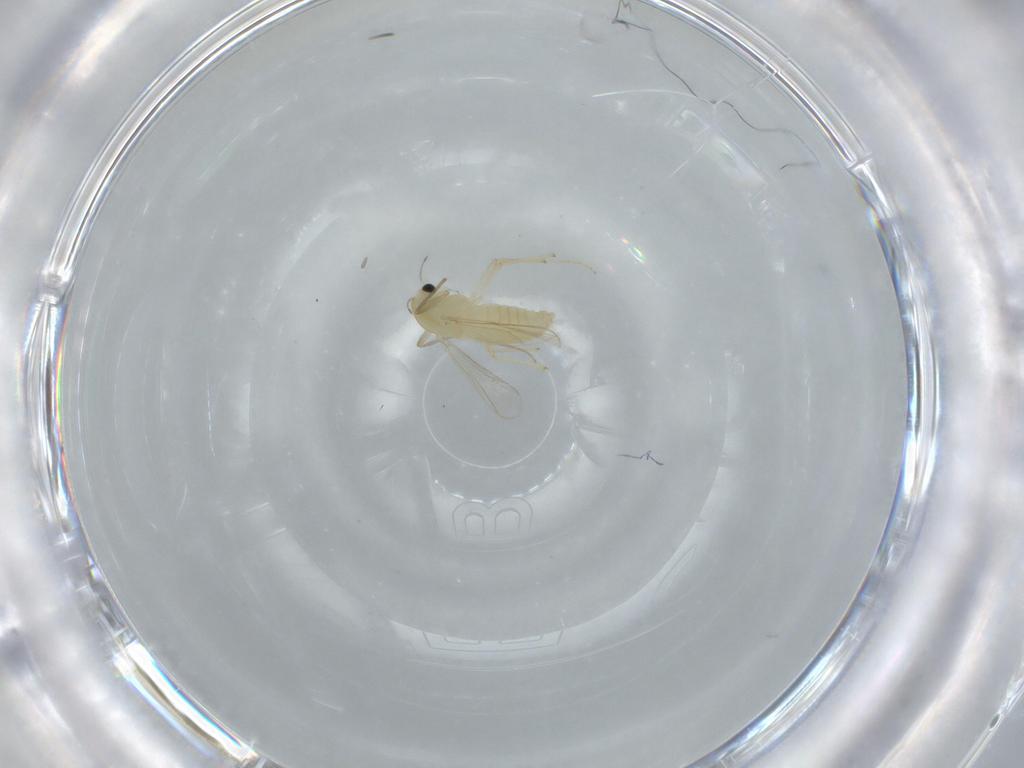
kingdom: Animalia
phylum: Arthropoda
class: Insecta
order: Diptera
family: Chironomidae
